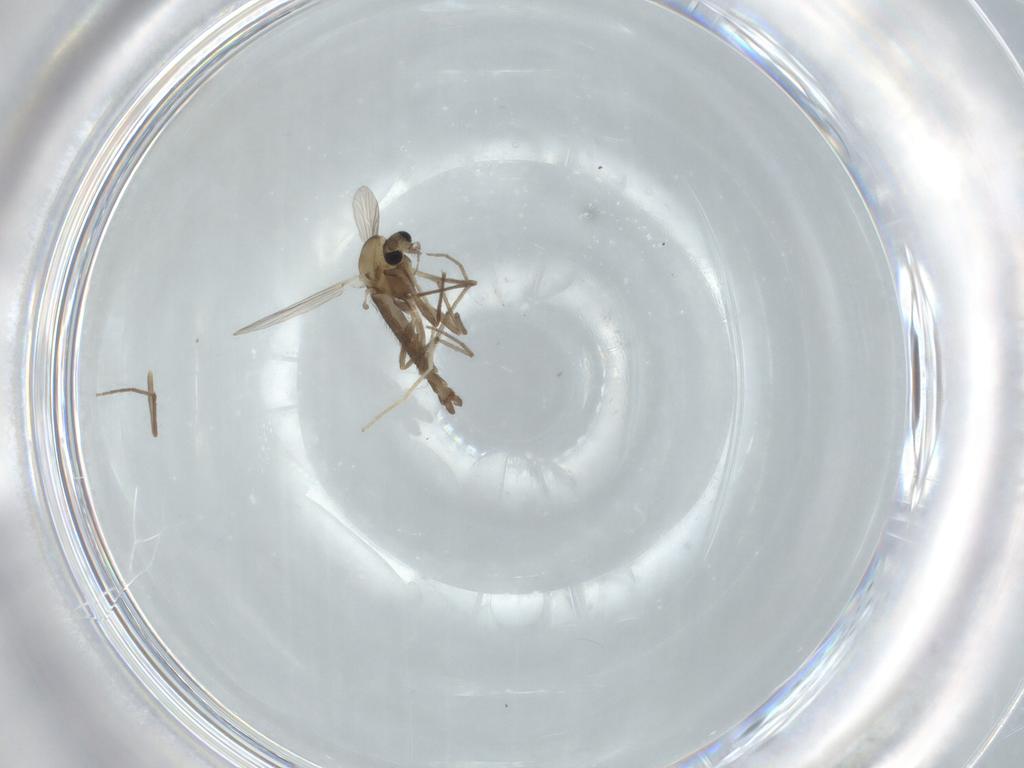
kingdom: Animalia
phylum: Arthropoda
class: Insecta
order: Diptera
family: Chironomidae
